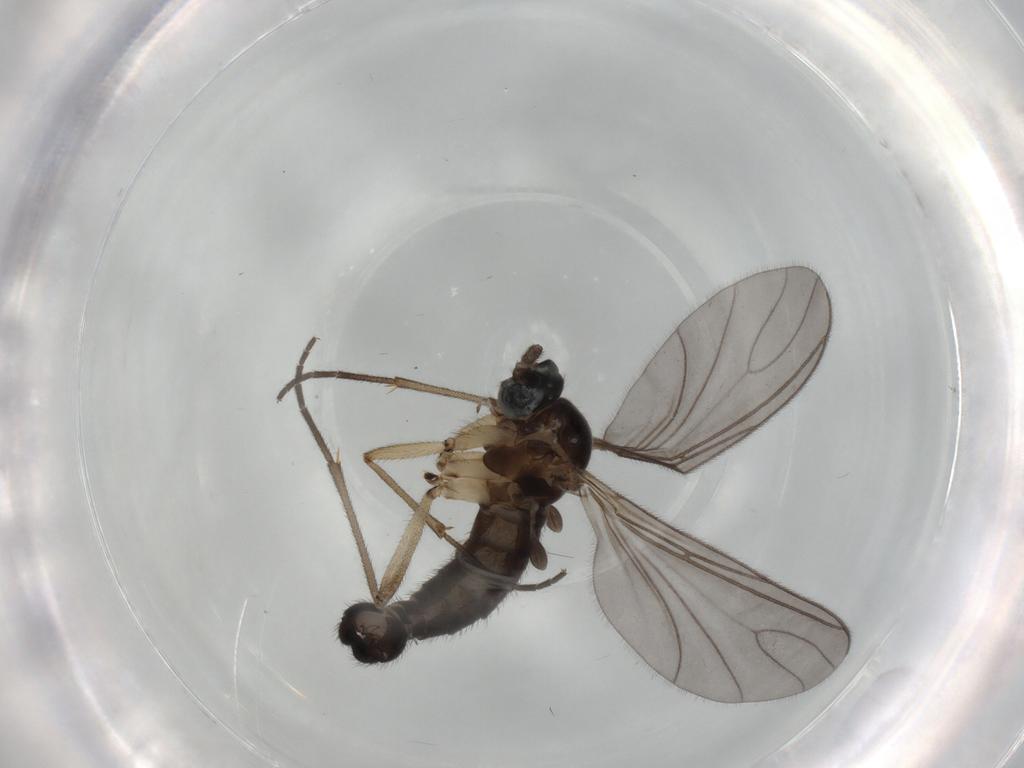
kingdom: Animalia
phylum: Arthropoda
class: Insecta
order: Diptera
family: Sciaridae
